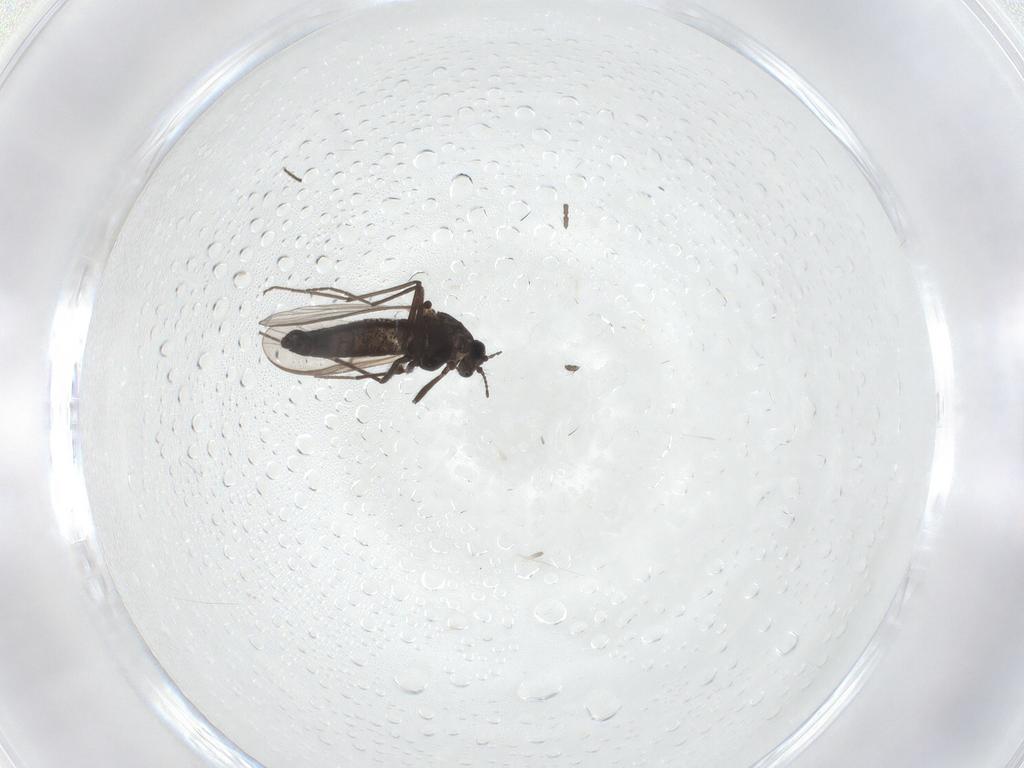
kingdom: Animalia
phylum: Arthropoda
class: Insecta
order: Diptera
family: Chironomidae
